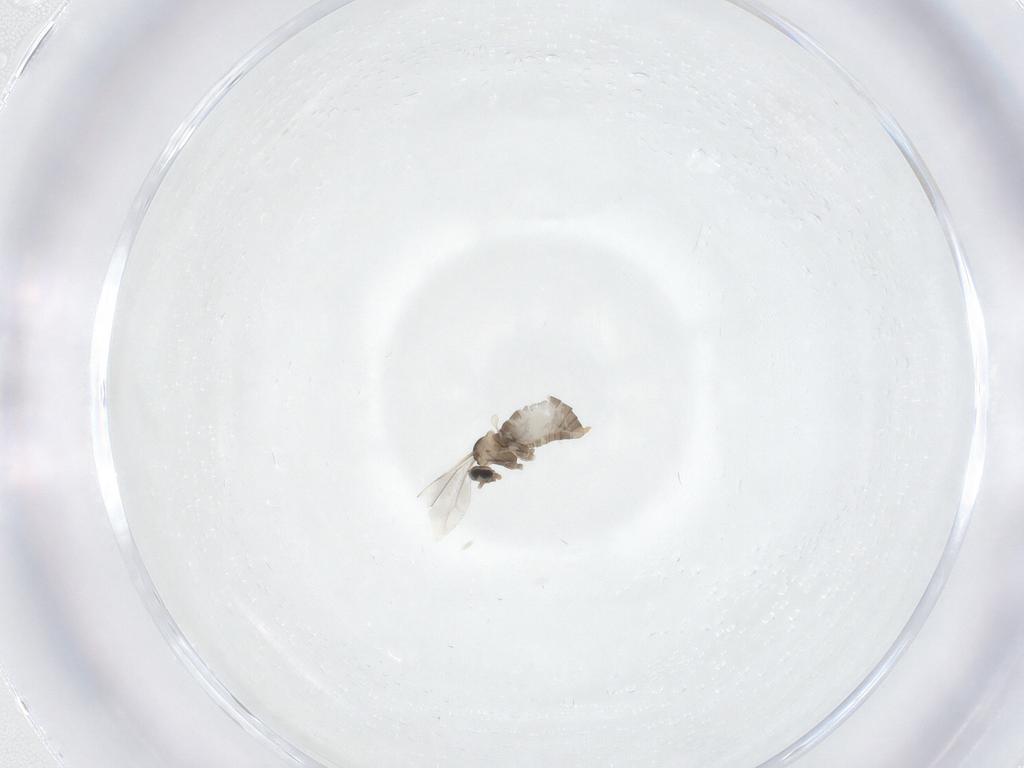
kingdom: Animalia
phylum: Arthropoda
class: Insecta
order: Diptera
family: Cecidomyiidae
